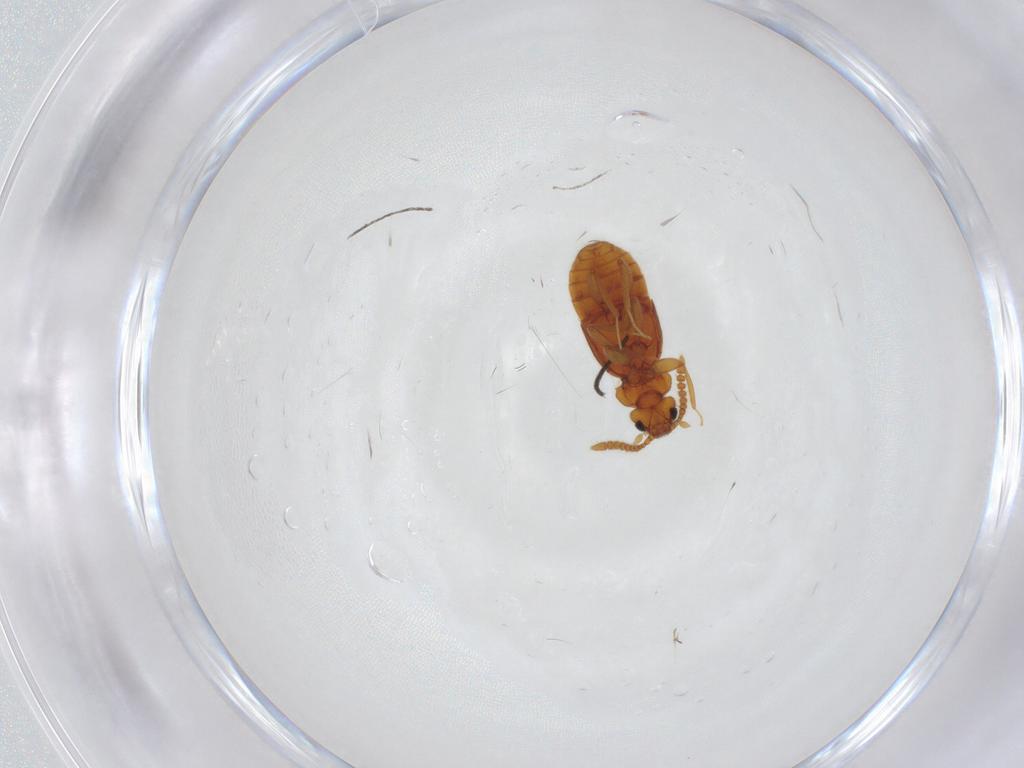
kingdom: Animalia
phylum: Arthropoda
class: Insecta
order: Coleoptera
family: Staphylinidae
